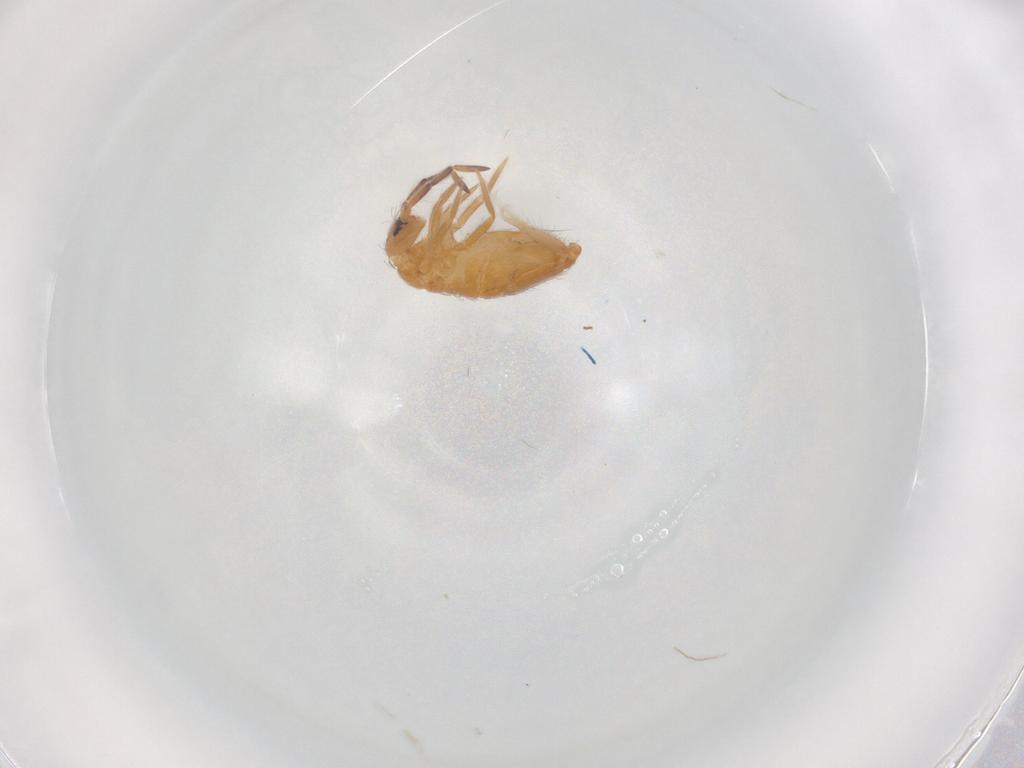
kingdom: Animalia
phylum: Arthropoda
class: Collembola
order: Entomobryomorpha
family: Entomobryidae
